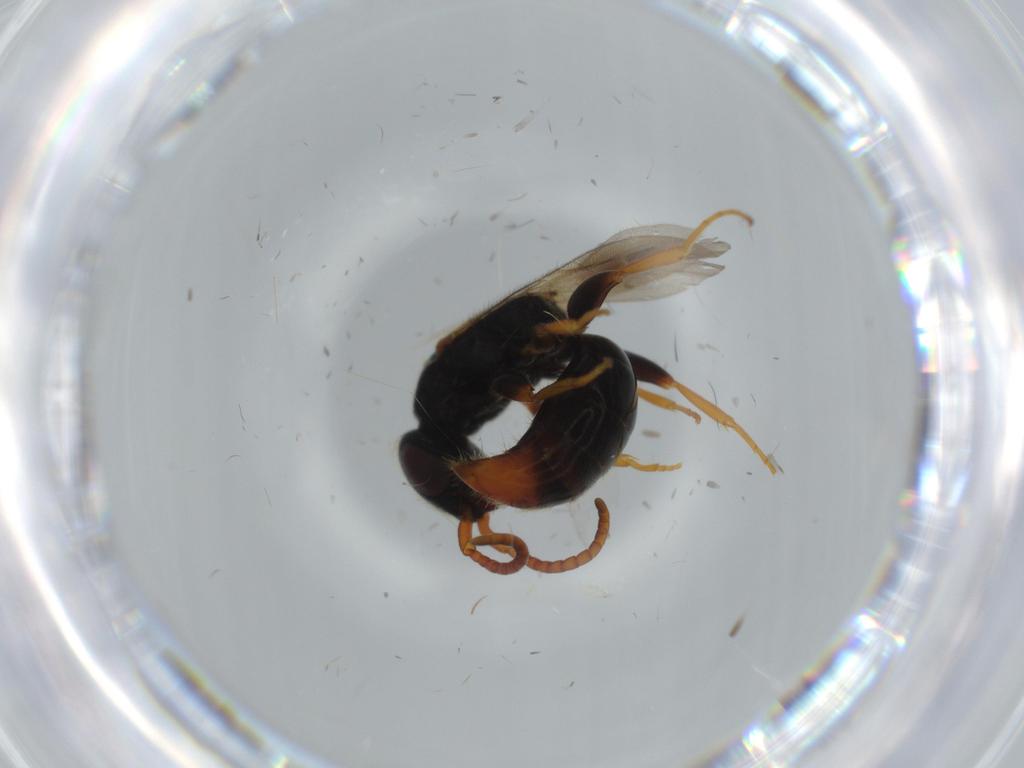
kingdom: Animalia
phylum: Arthropoda
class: Insecta
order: Hymenoptera
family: Bethylidae
